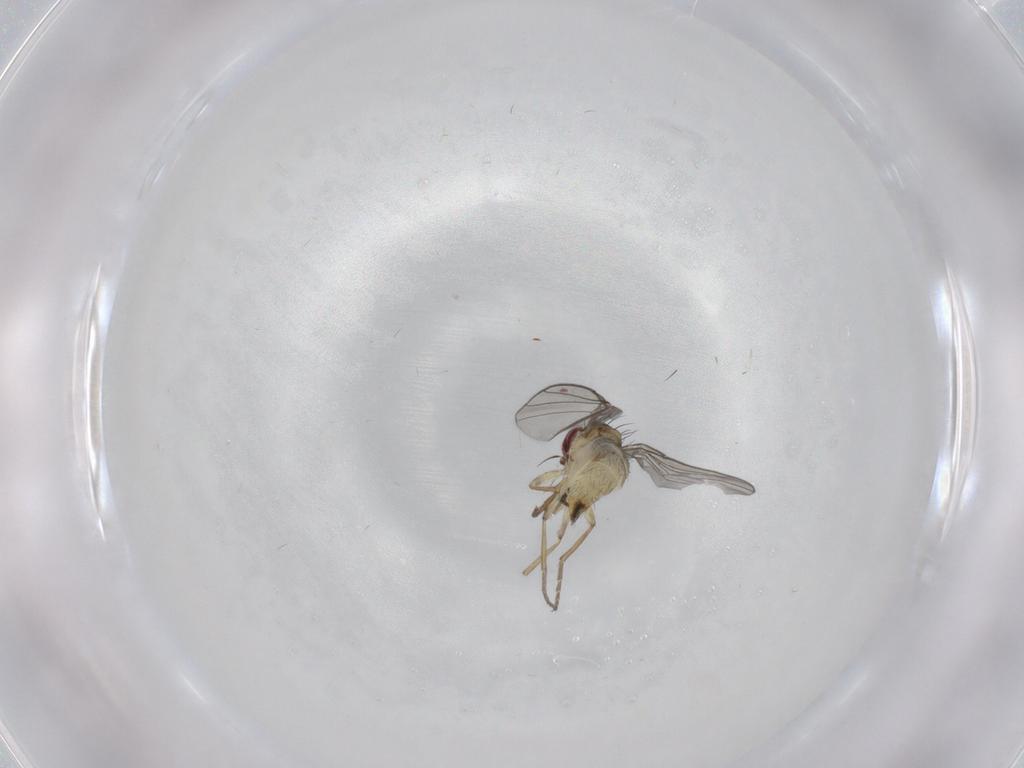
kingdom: Animalia
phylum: Arthropoda
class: Insecta
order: Diptera
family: Agromyzidae
